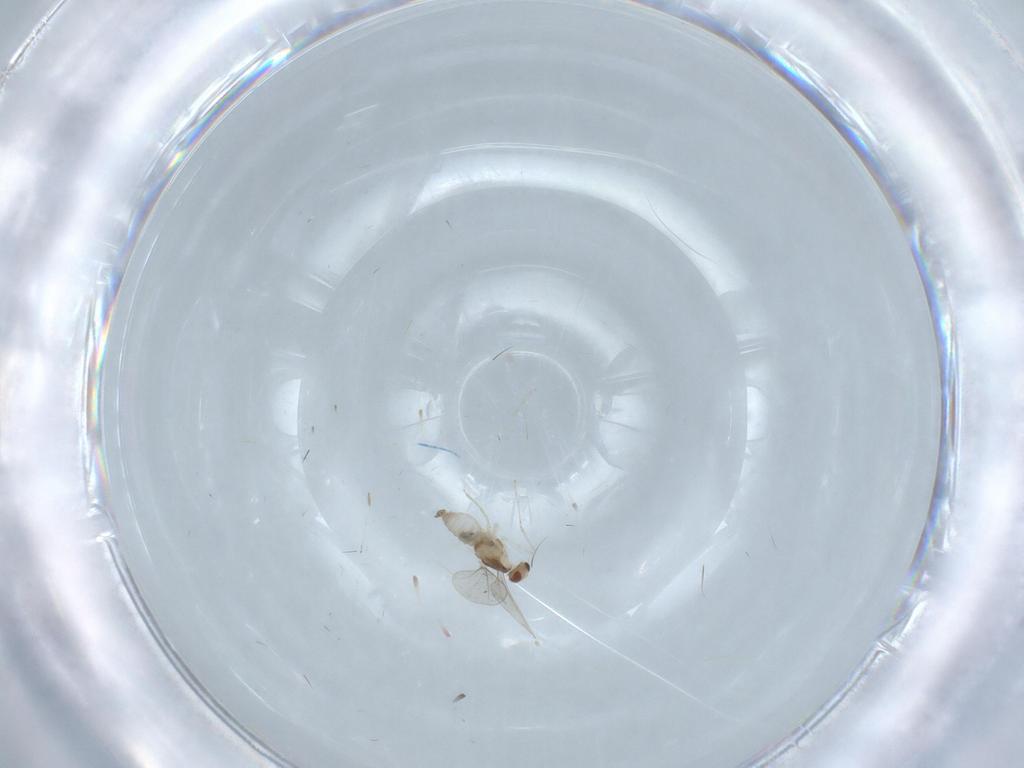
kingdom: Animalia
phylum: Arthropoda
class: Insecta
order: Diptera
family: Cecidomyiidae
